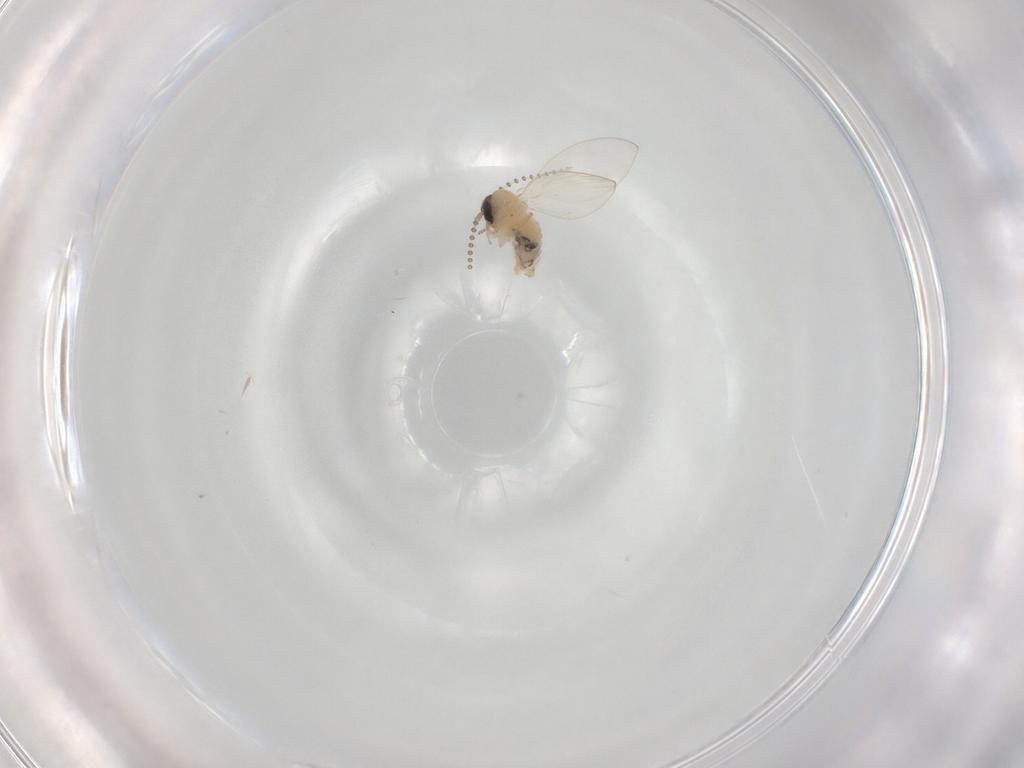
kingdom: Animalia
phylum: Arthropoda
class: Insecta
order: Diptera
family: Psychodidae
